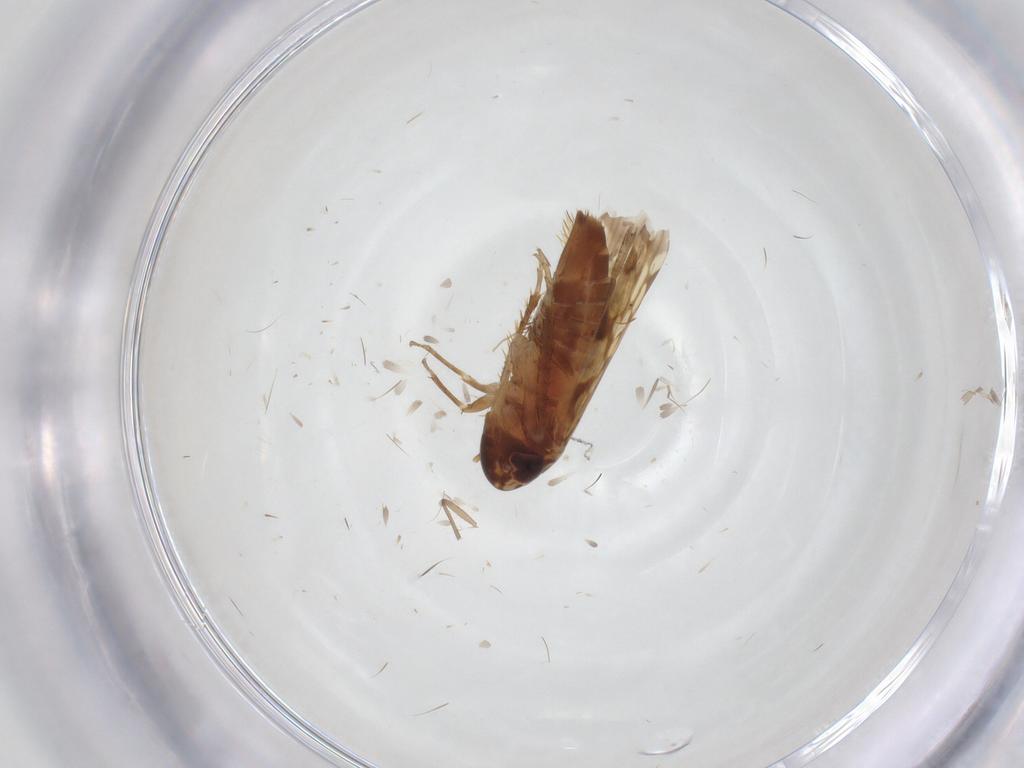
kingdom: Animalia
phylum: Arthropoda
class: Insecta
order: Hemiptera
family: Cicadellidae
